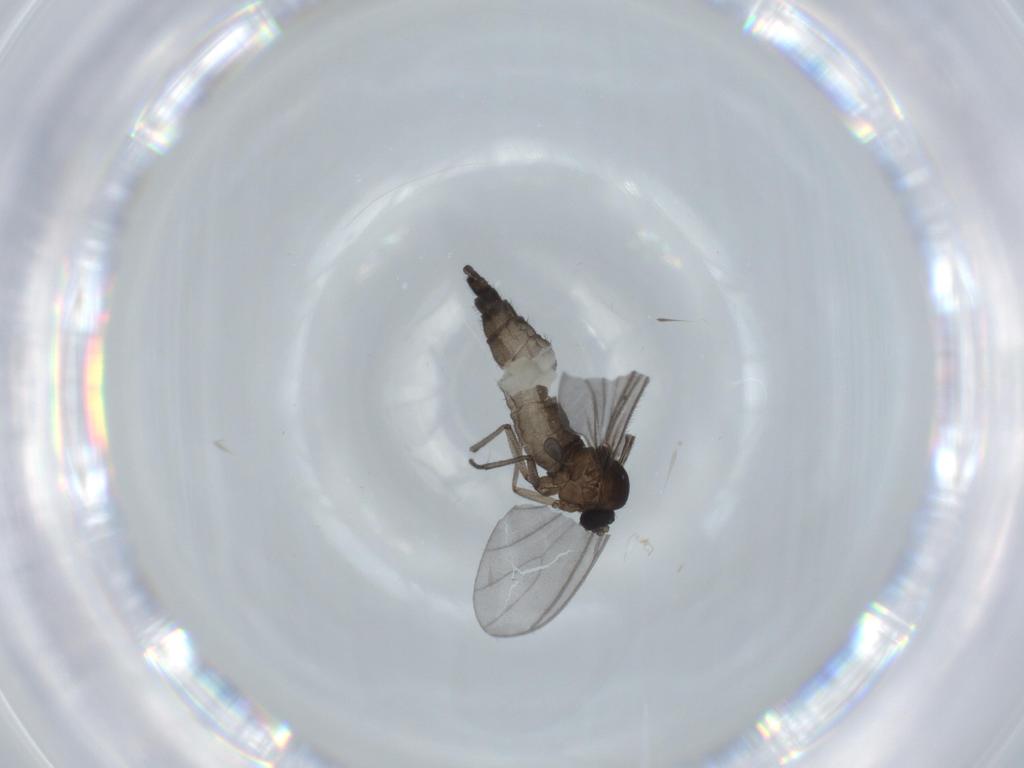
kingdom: Animalia
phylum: Arthropoda
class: Insecta
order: Diptera
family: Sciaridae
